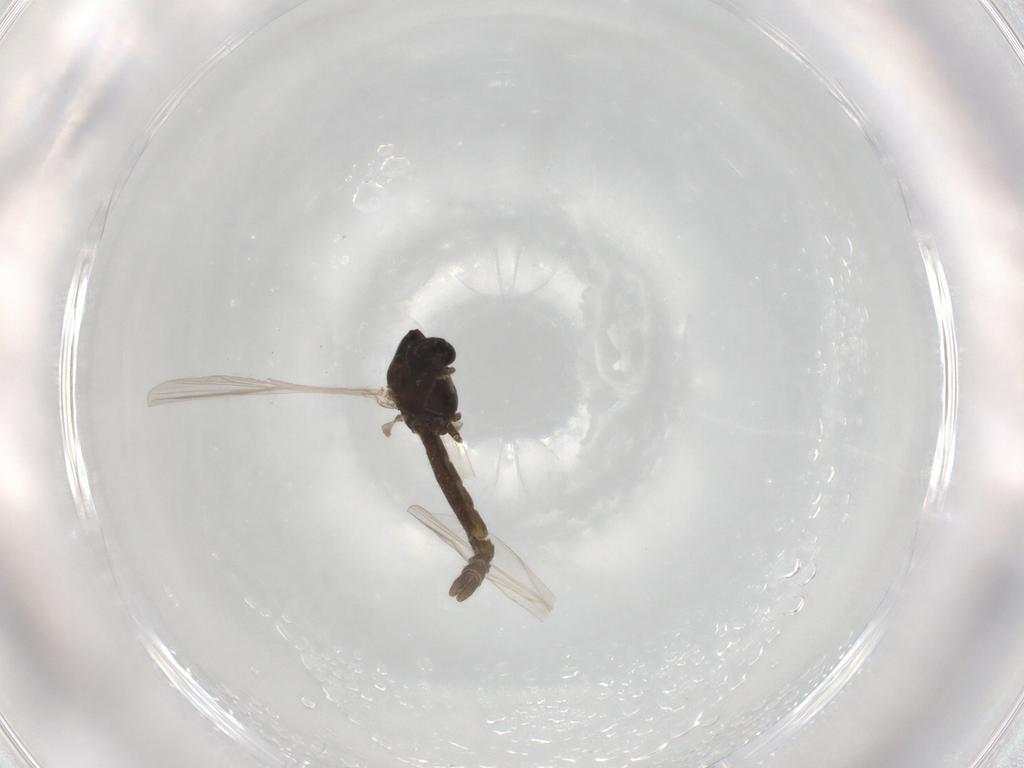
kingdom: Animalia
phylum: Arthropoda
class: Insecta
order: Diptera
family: Chironomidae
